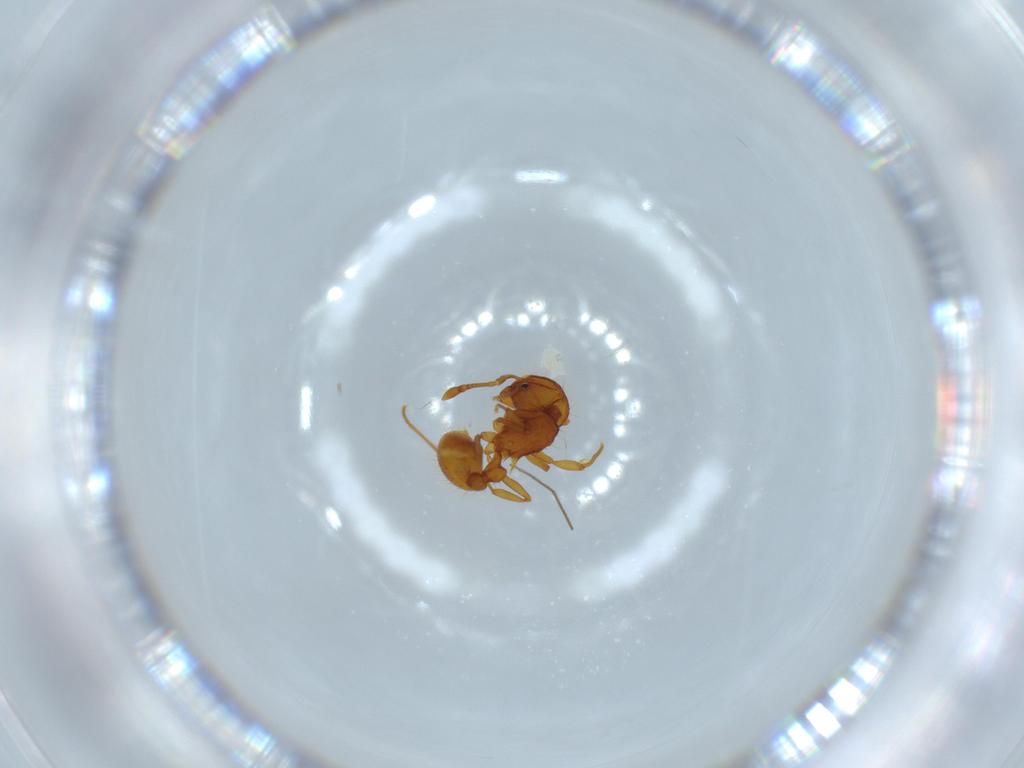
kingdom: Animalia
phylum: Arthropoda
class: Insecta
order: Hymenoptera
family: Formicidae
